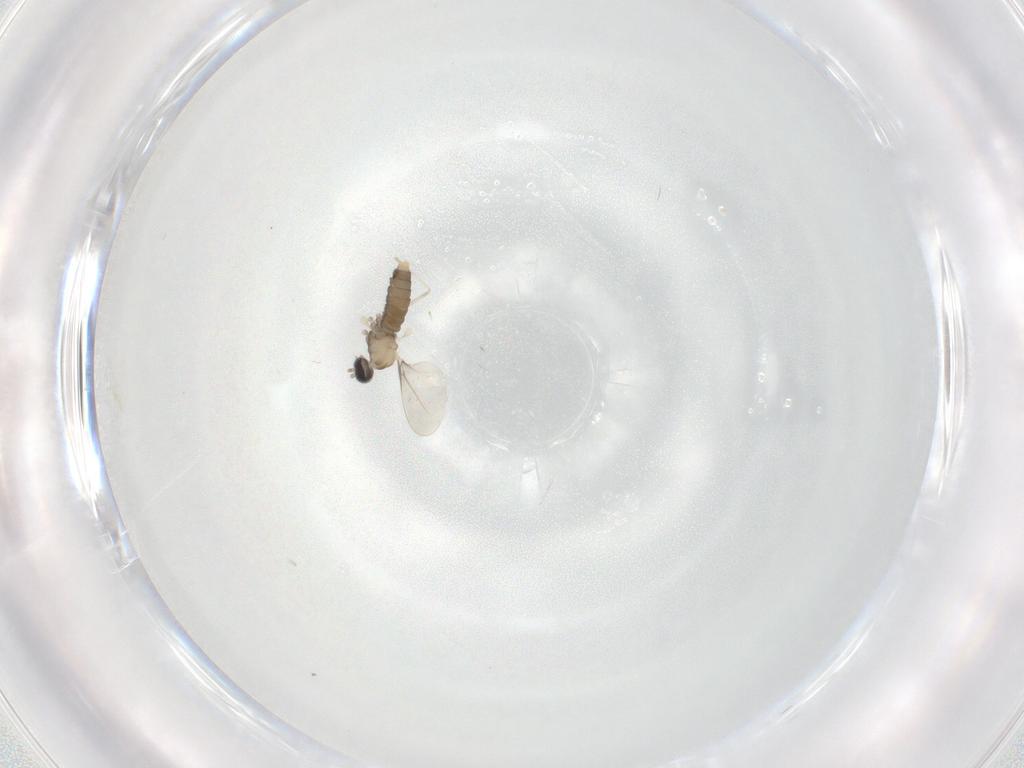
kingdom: Animalia
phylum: Arthropoda
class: Insecta
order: Diptera
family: Cecidomyiidae
